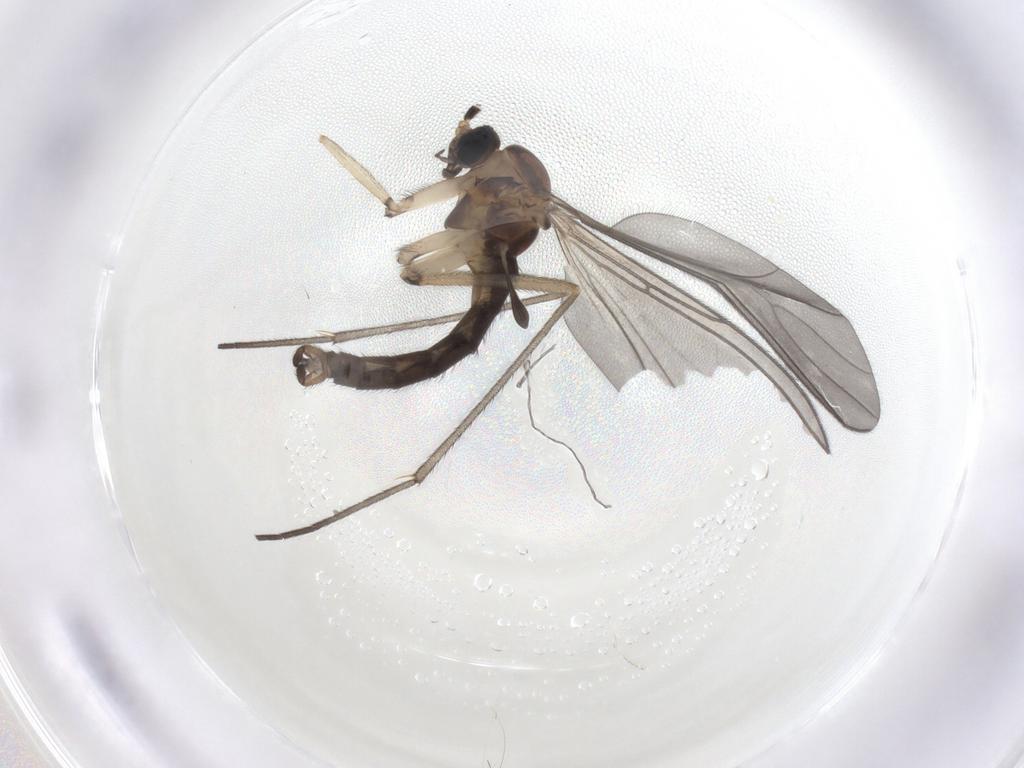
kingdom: Animalia
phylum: Arthropoda
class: Insecta
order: Diptera
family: Sciaridae
